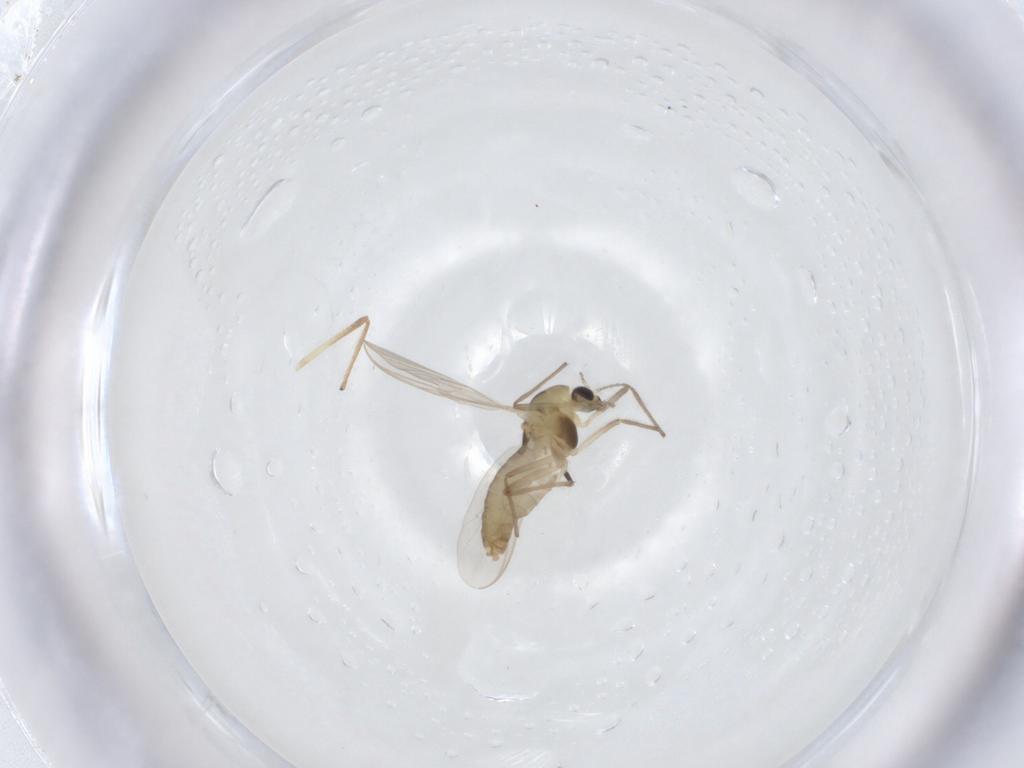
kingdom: Animalia
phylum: Arthropoda
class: Insecta
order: Diptera
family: Chironomidae
